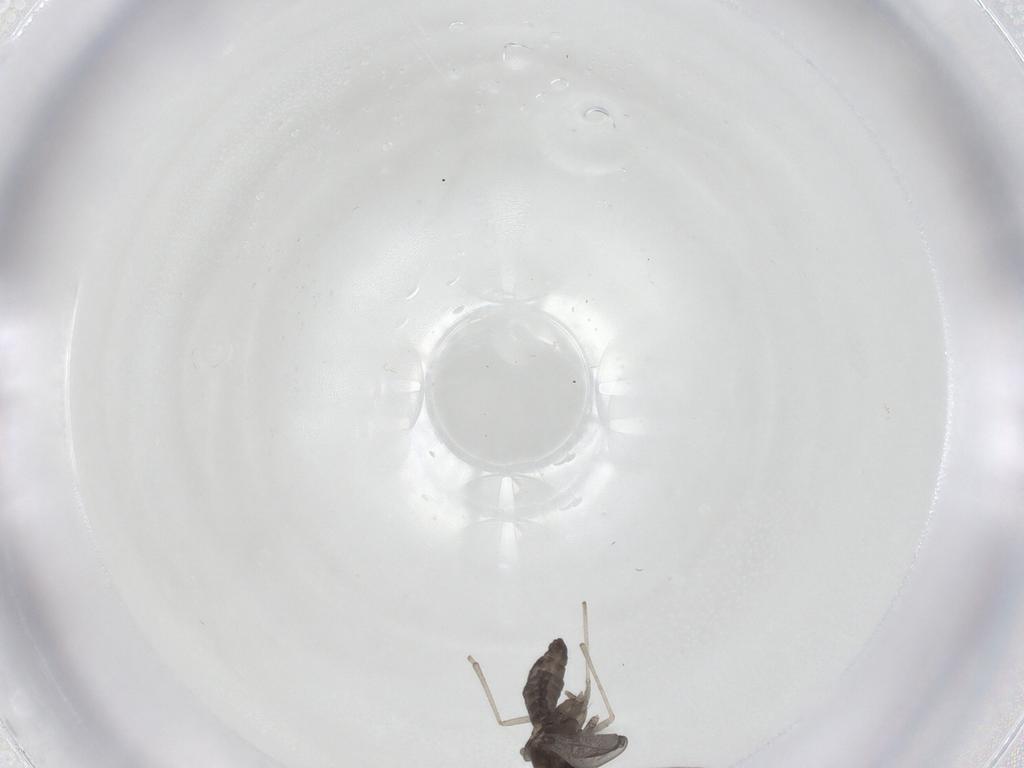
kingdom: Animalia
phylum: Arthropoda
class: Insecta
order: Diptera
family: Cecidomyiidae
